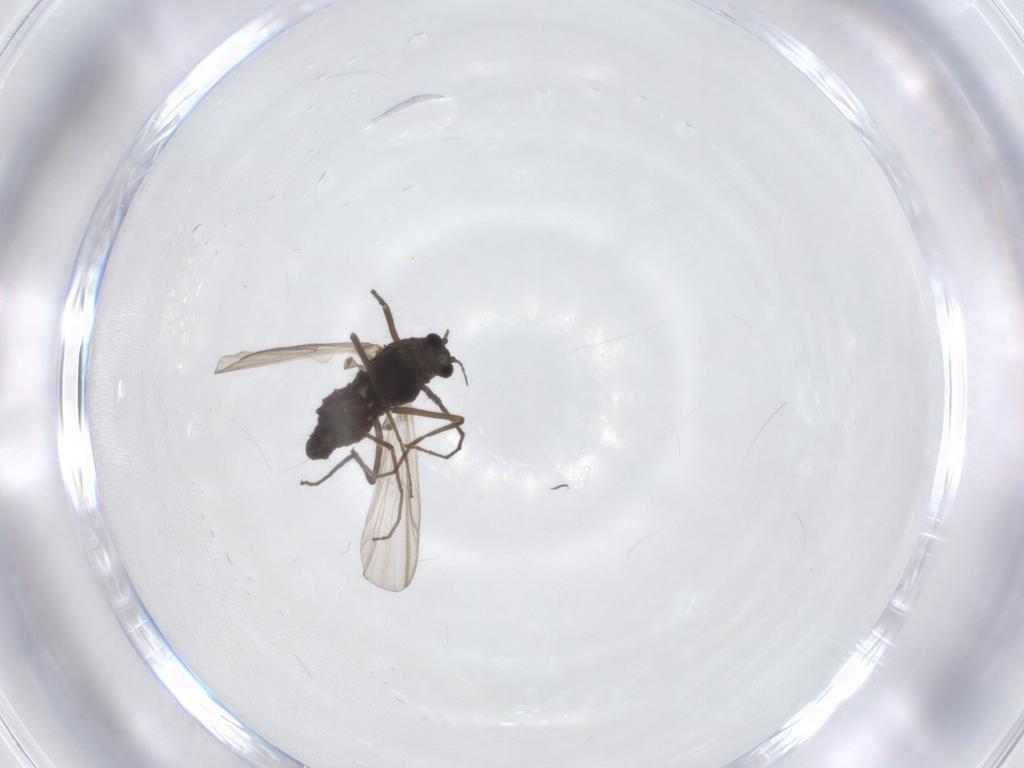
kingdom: Animalia
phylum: Arthropoda
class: Insecta
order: Diptera
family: Chironomidae
